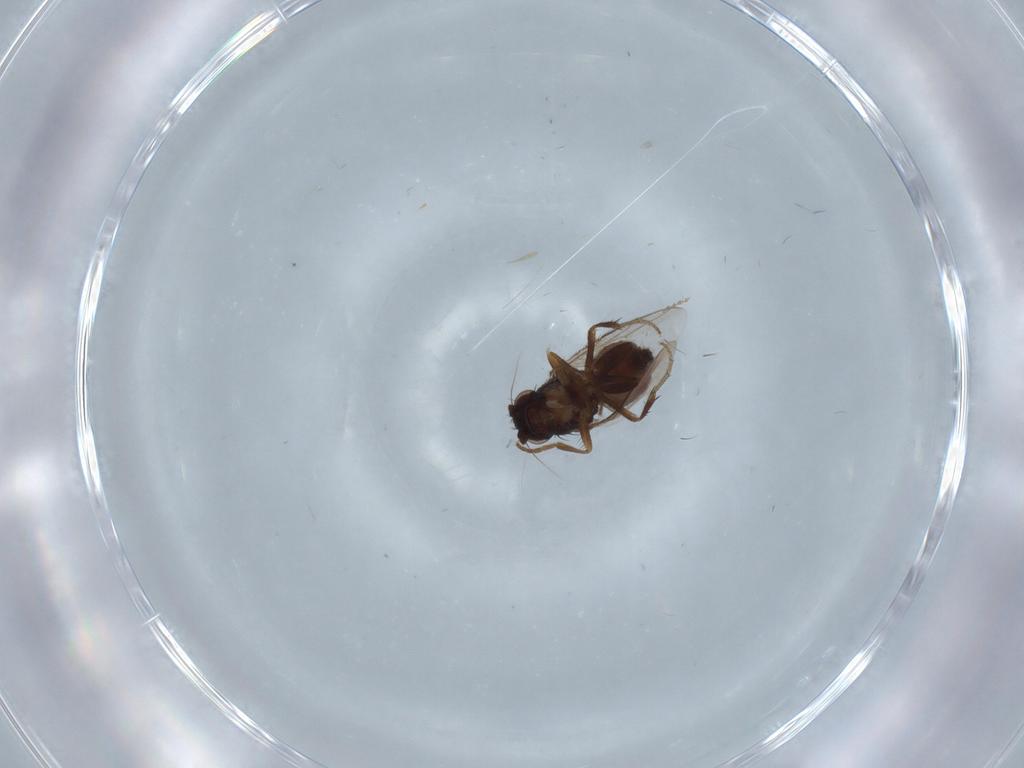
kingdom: Animalia
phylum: Arthropoda
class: Insecta
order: Diptera
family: Sphaeroceridae
